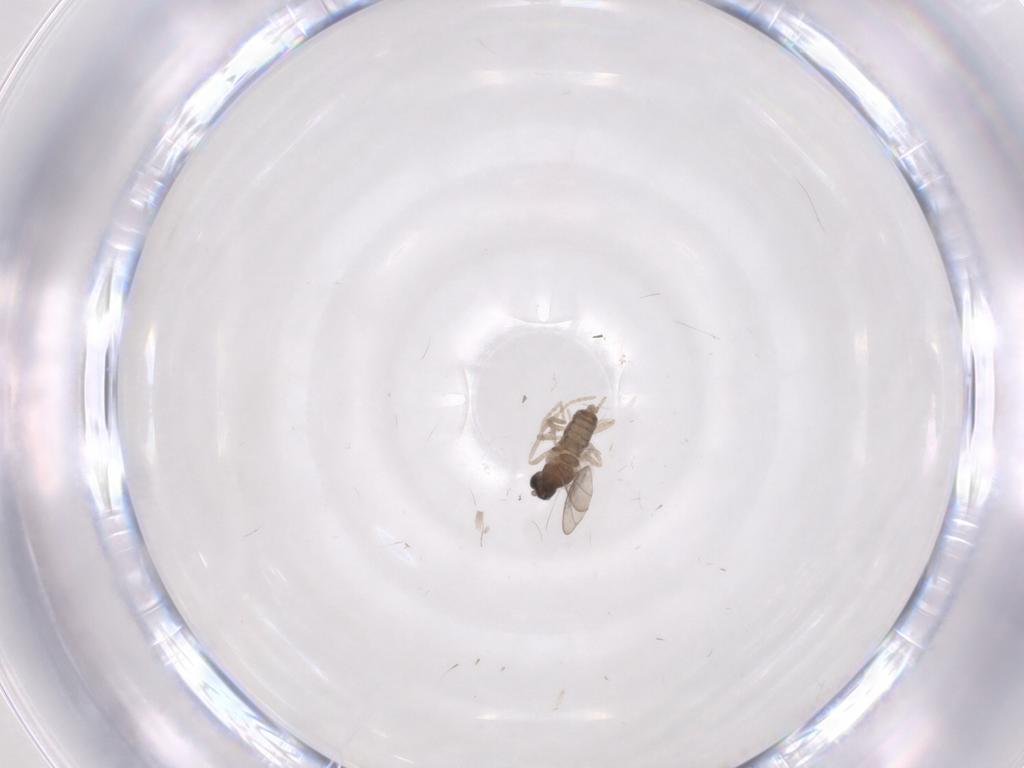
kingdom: Animalia
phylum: Arthropoda
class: Insecta
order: Diptera
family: Cecidomyiidae
